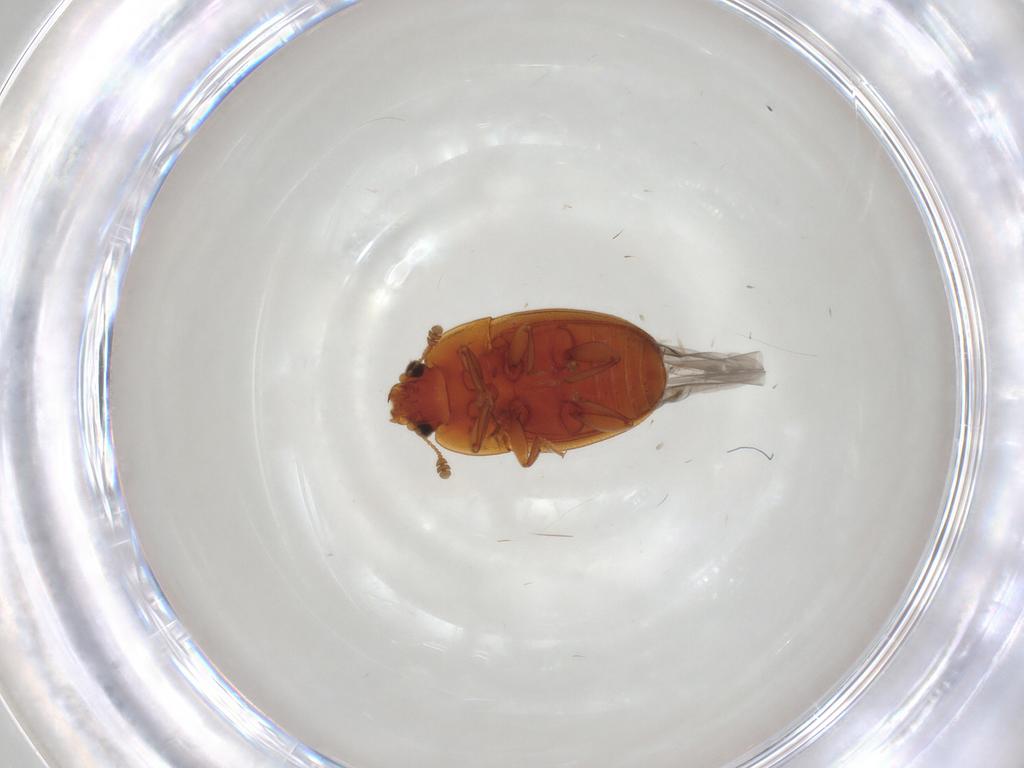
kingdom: Animalia
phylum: Arthropoda
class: Insecta
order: Coleoptera
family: Nitidulidae
